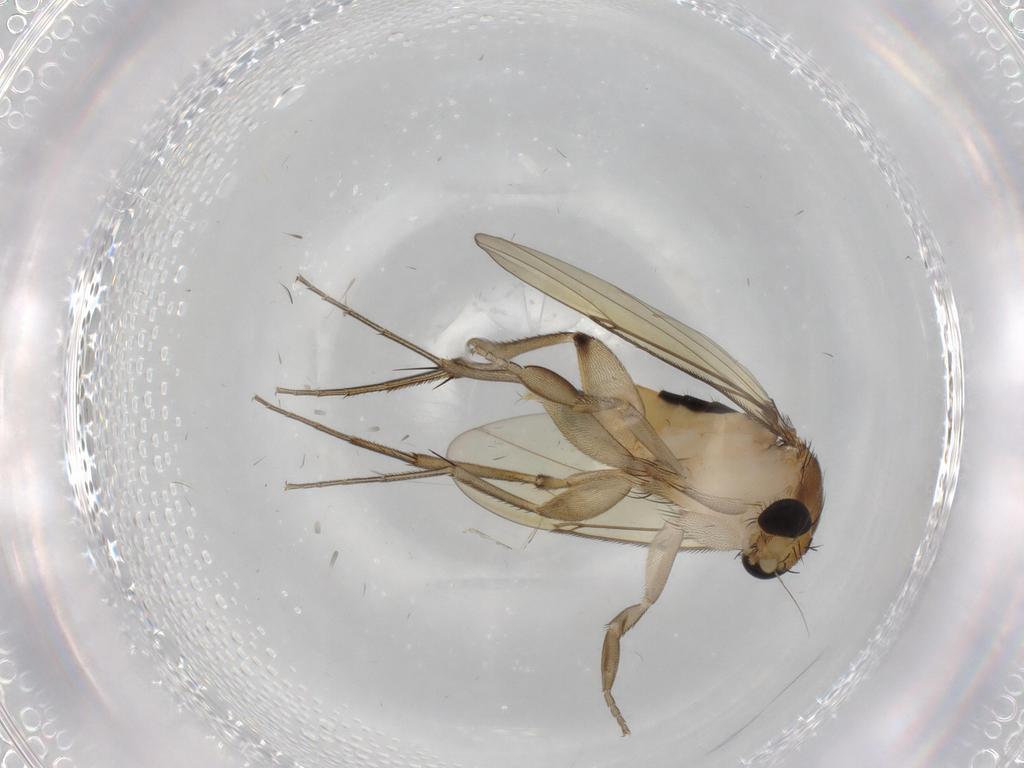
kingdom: Animalia
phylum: Arthropoda
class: Insecta
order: Diptera
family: Phoridae
